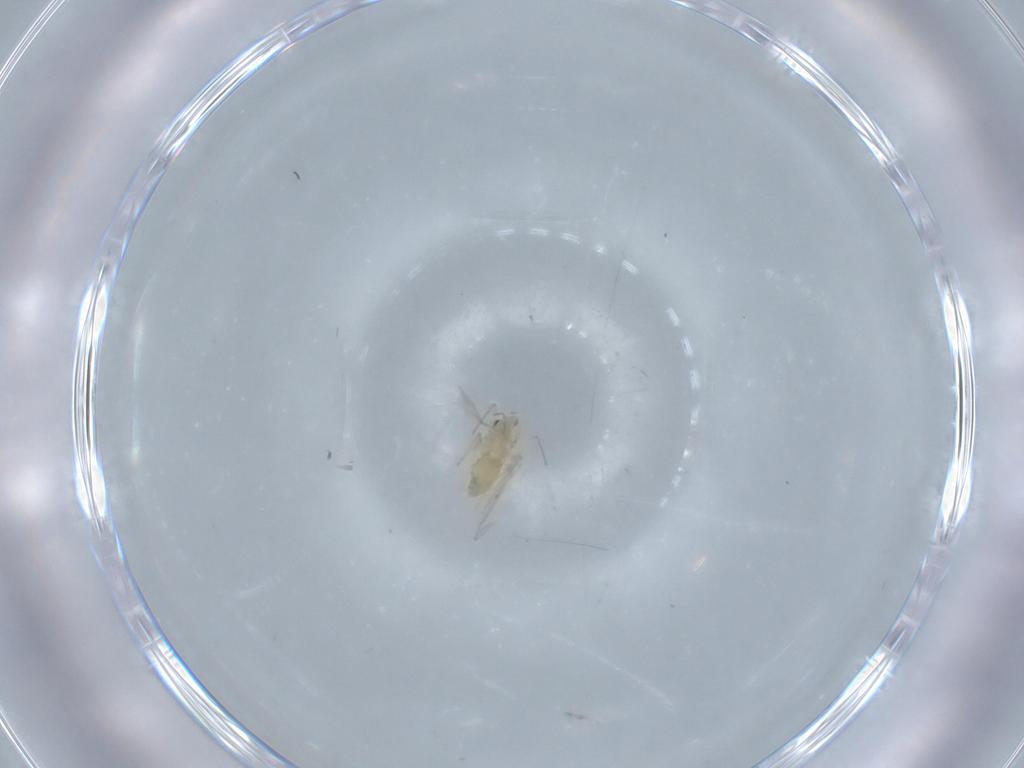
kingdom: Animalia
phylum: Arthropoda
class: Insecta
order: Diptera
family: Chironomidae
